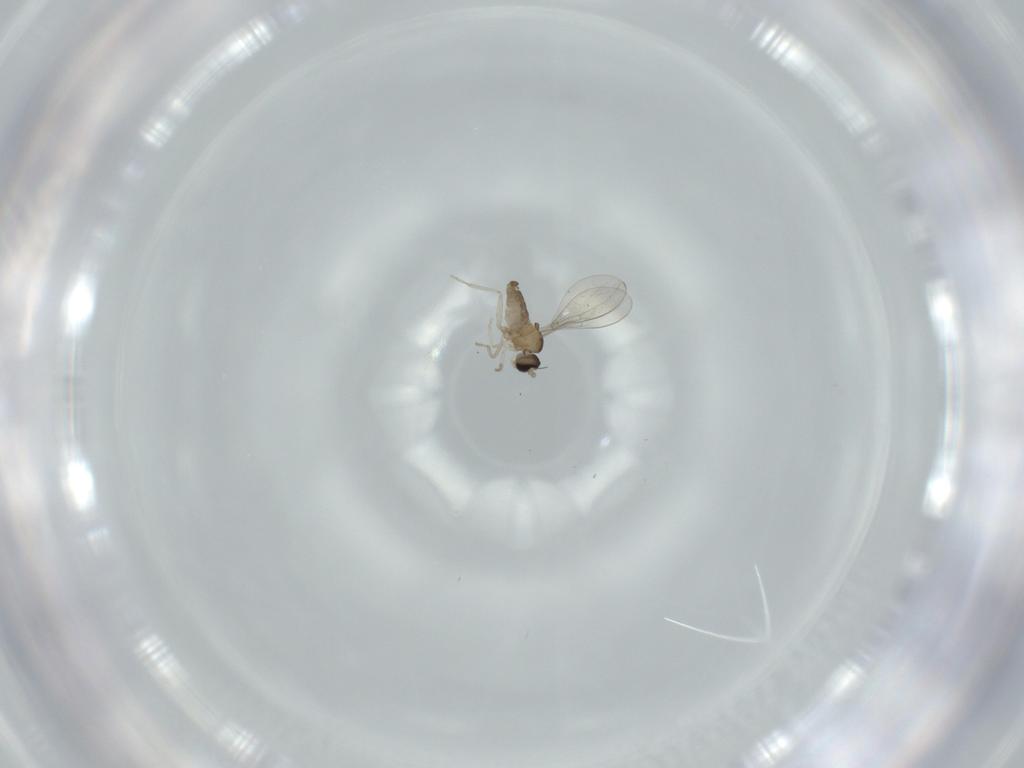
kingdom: Animalia
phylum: Arthropoda
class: Insecta
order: Diptera
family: Cecidomyiidae
